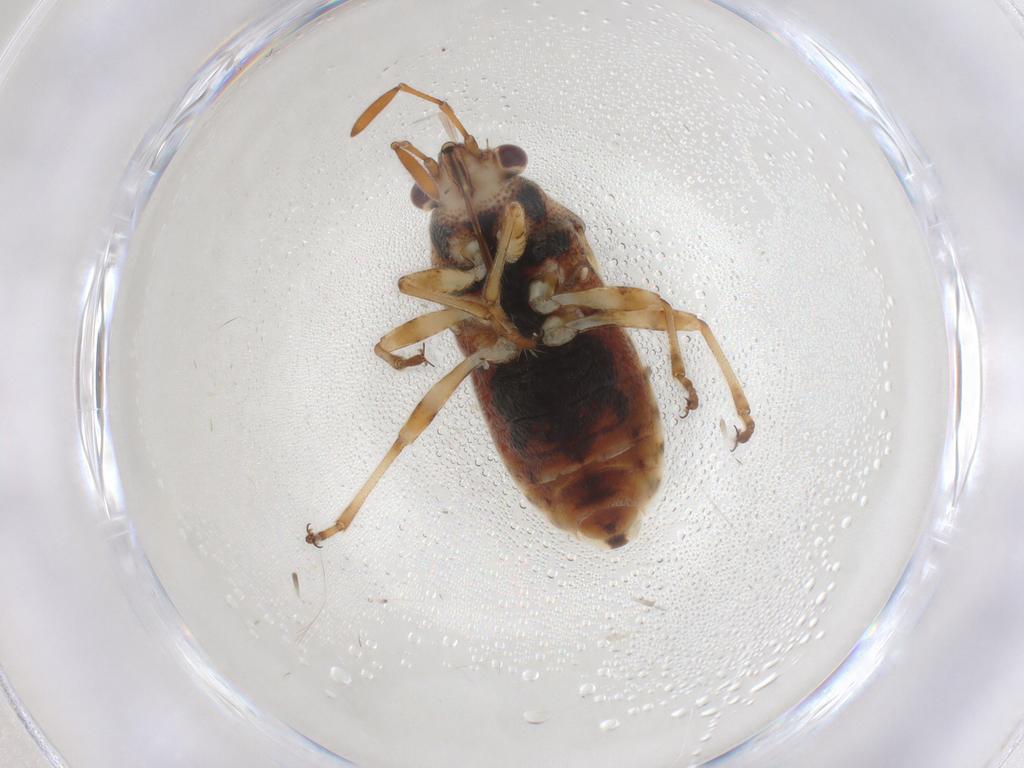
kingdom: Animalia
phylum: Arthropoda
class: Insecta
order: Hemiptera
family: Lygaeidae
